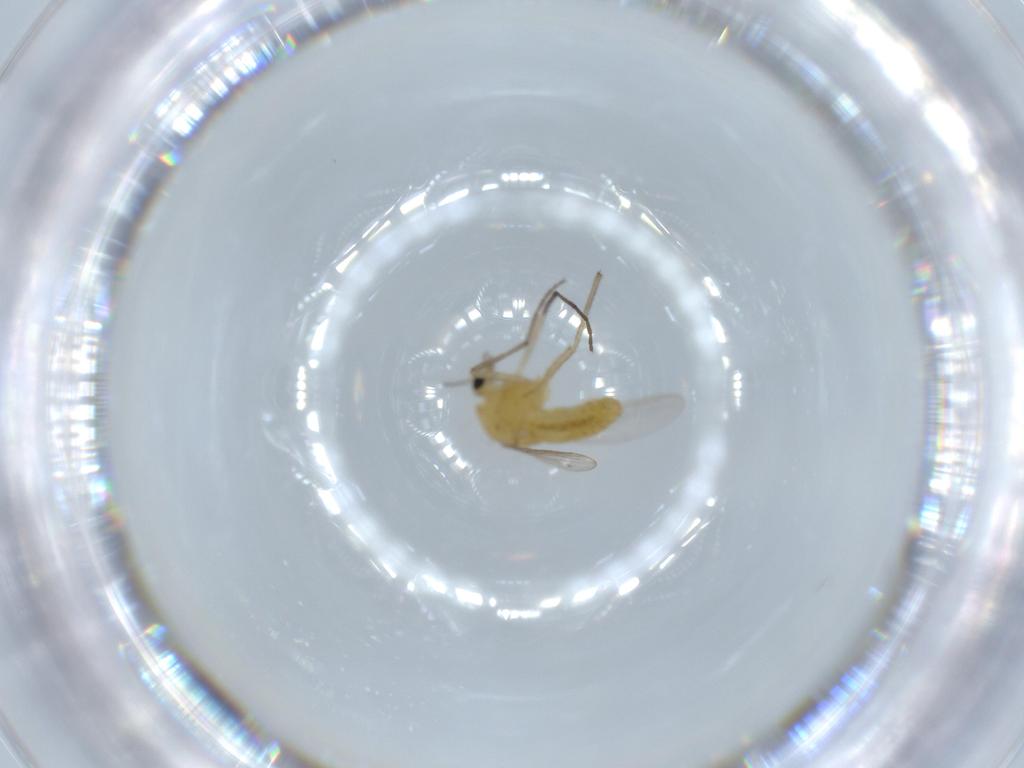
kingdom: Animalia
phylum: Arthropoda
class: Insecta
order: Diptera
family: Chironomidae
